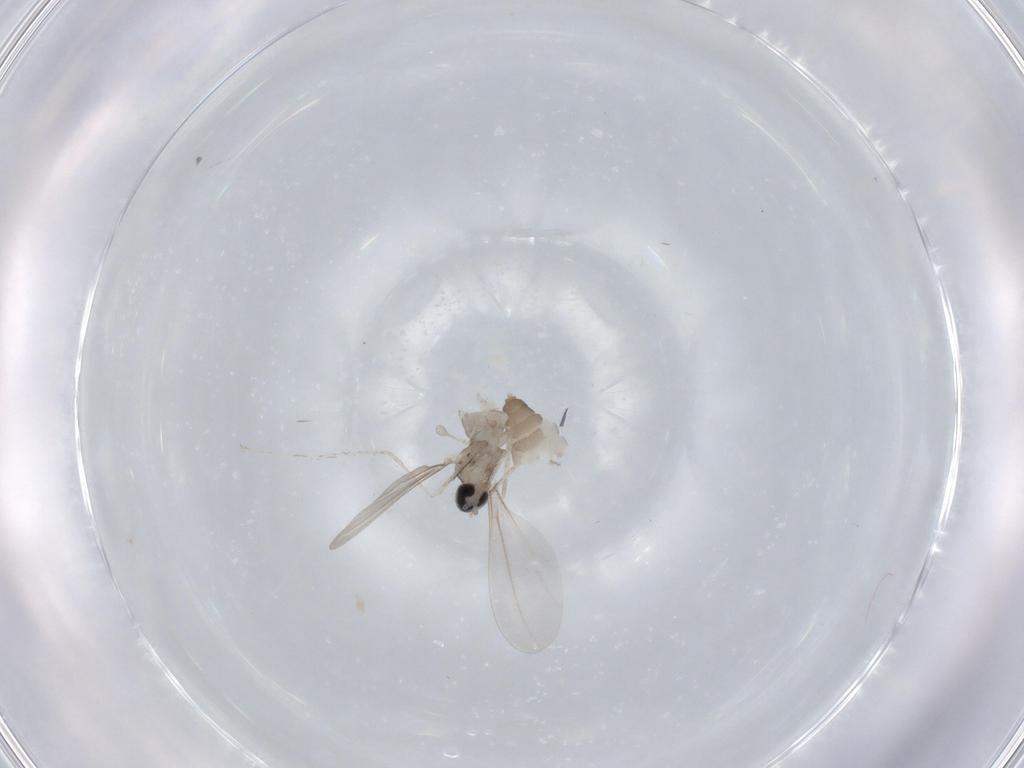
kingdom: Animalia
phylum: Arthropoda
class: Insecta
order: Diptera
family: Cecidomyiidae
